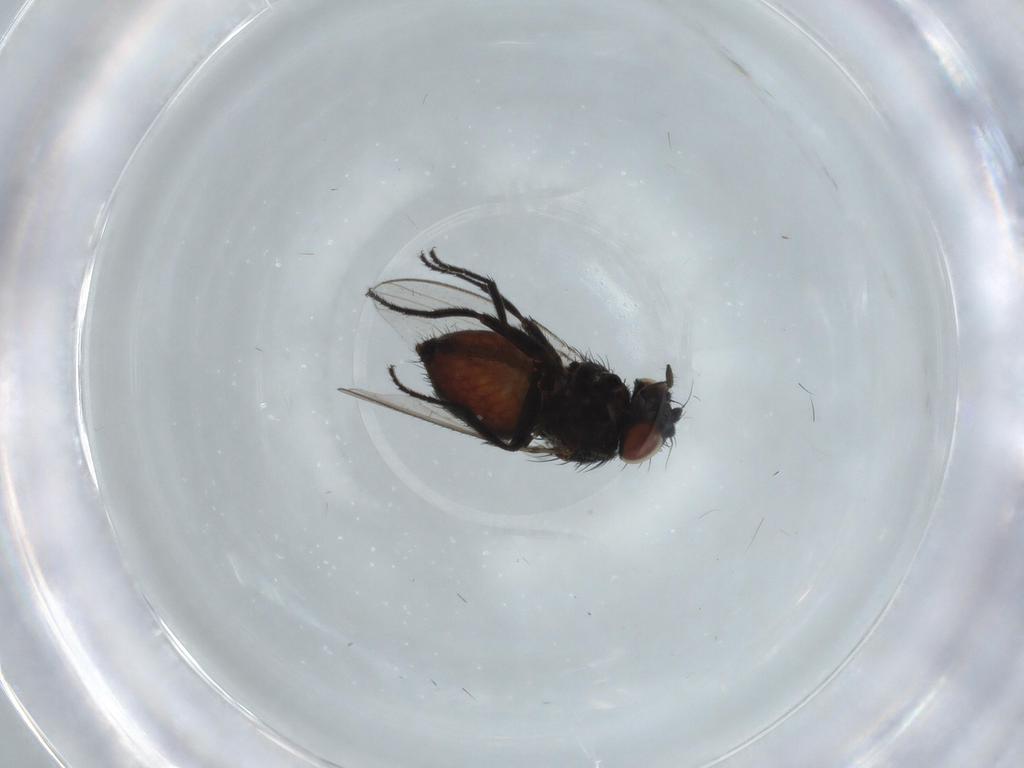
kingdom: Animalia
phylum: Arthropoda
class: Insecta
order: Diptera
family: Milichiidae
